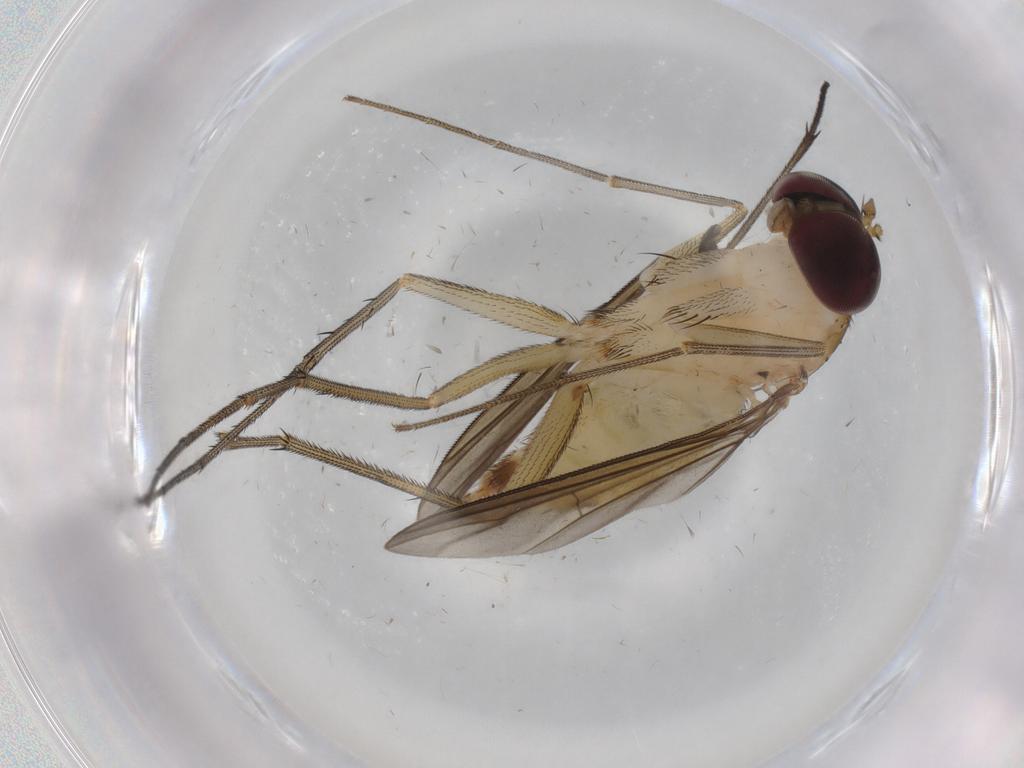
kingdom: Animalia
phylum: Arthropoda
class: Insecta
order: Diptera
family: Dolichopodidae
